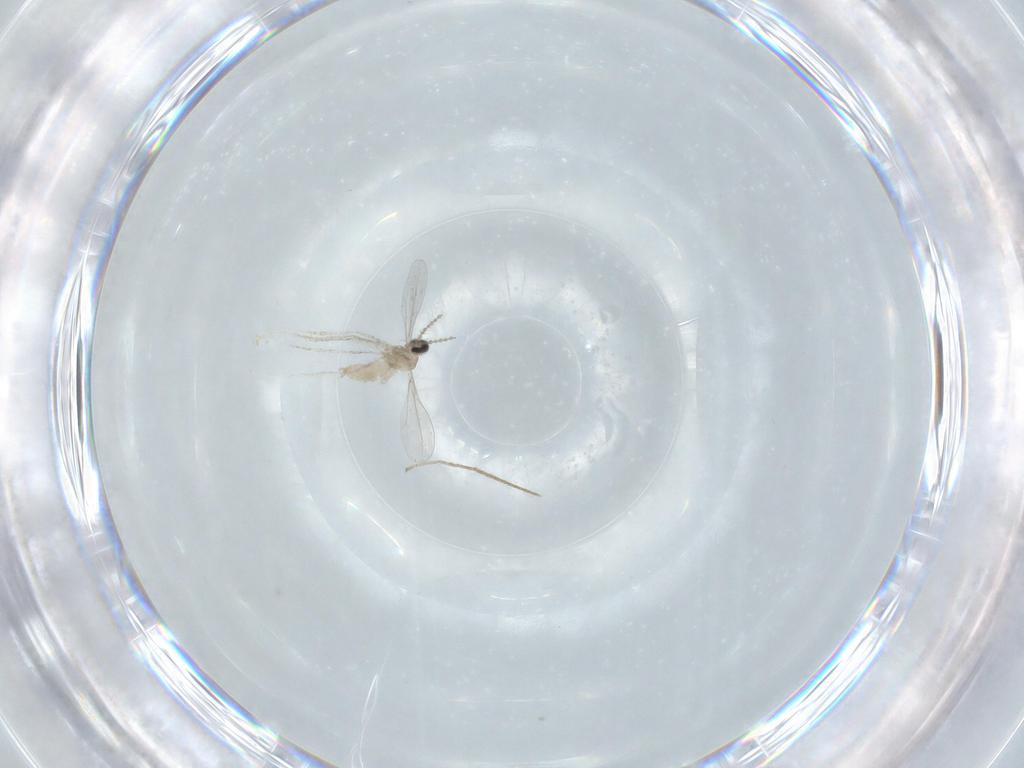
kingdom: Animalia
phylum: Arthropoda
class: Insecta
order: Diptera
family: Cecidomyiidae
